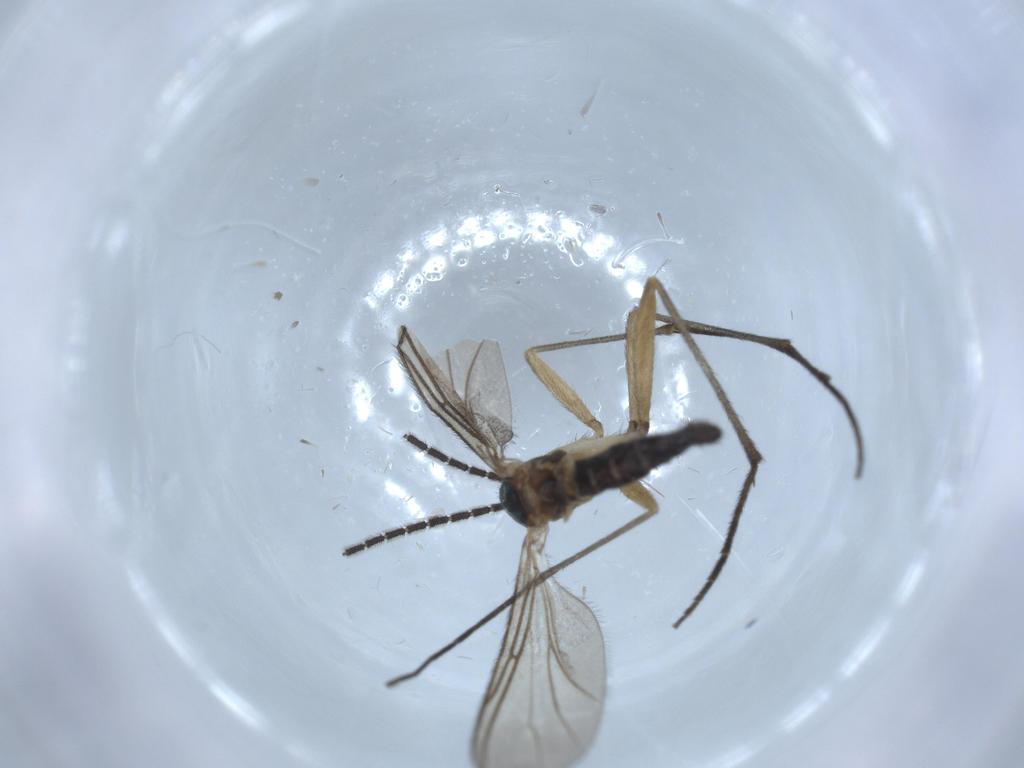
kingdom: Animalia
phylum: Arthropoda
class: Insecta
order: Diptera
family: Sciaridae
